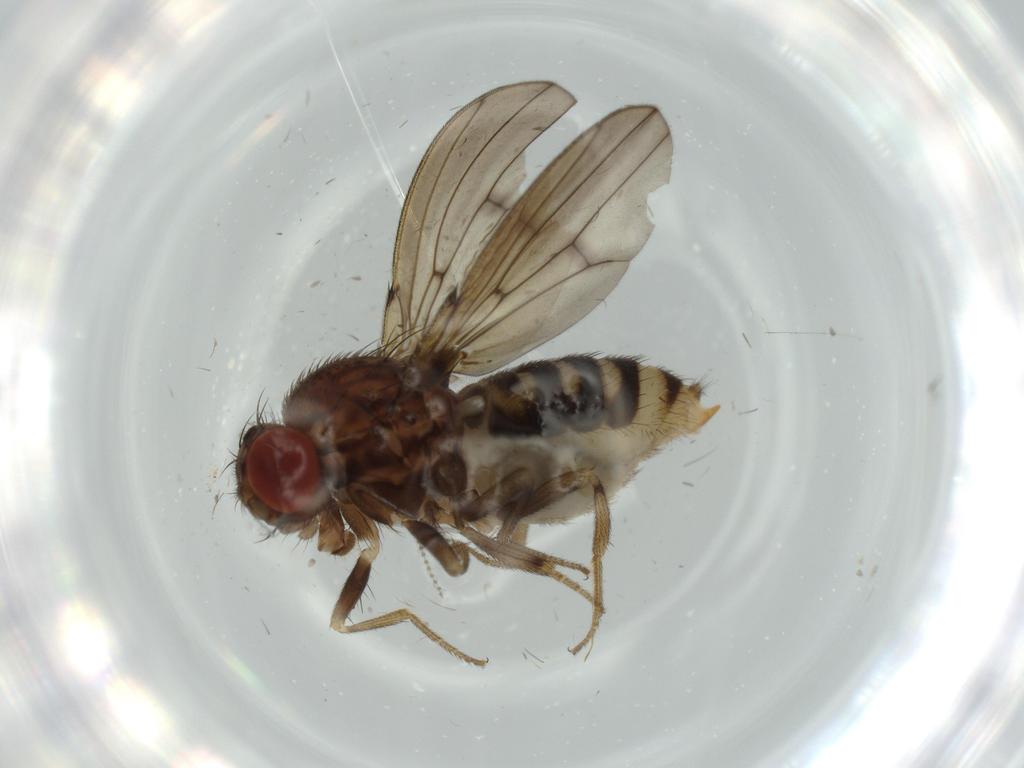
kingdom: Animalia
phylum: Arthropoda
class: Insecta
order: Diptera
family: Drosophilidae
